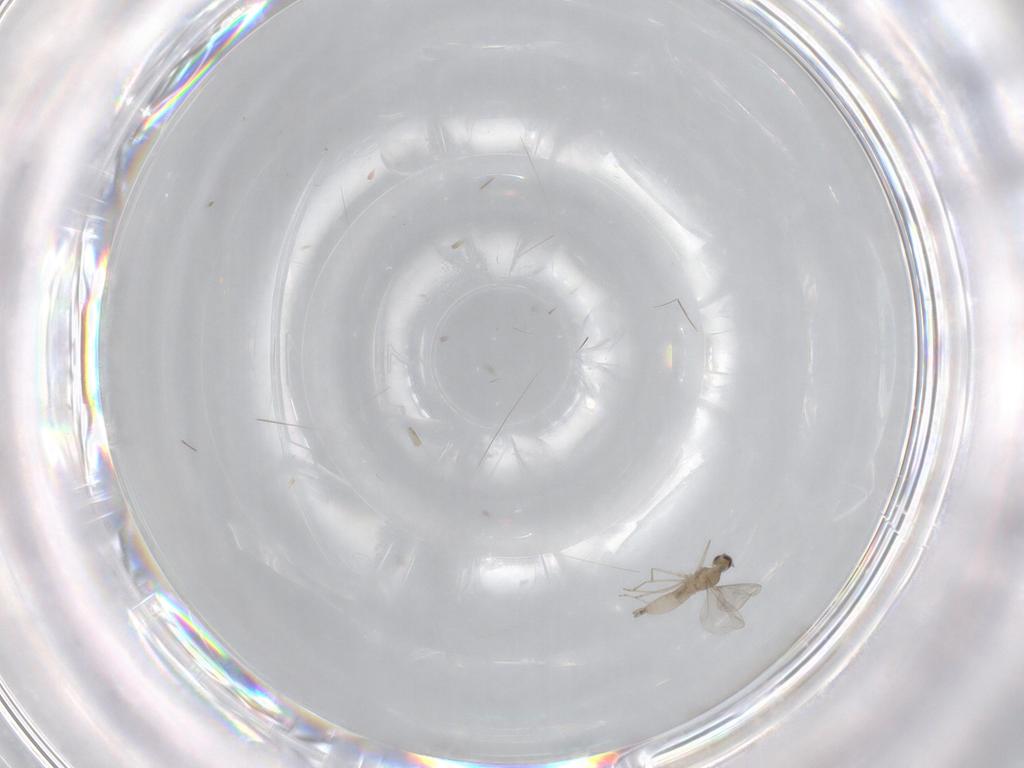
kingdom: Animalia
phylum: Arthropoda
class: Insecta
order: Diptera
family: Cecidomyiidae
